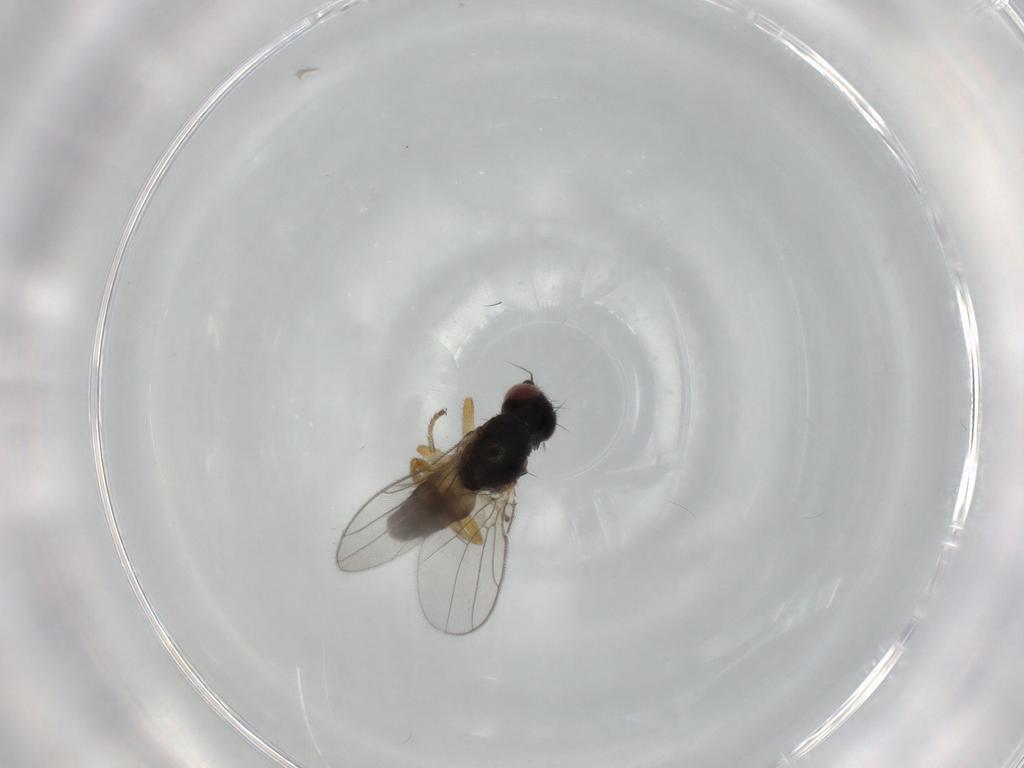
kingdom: Animalia
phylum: Arthropoda
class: Insecta
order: Diptera
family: Chloropidae
